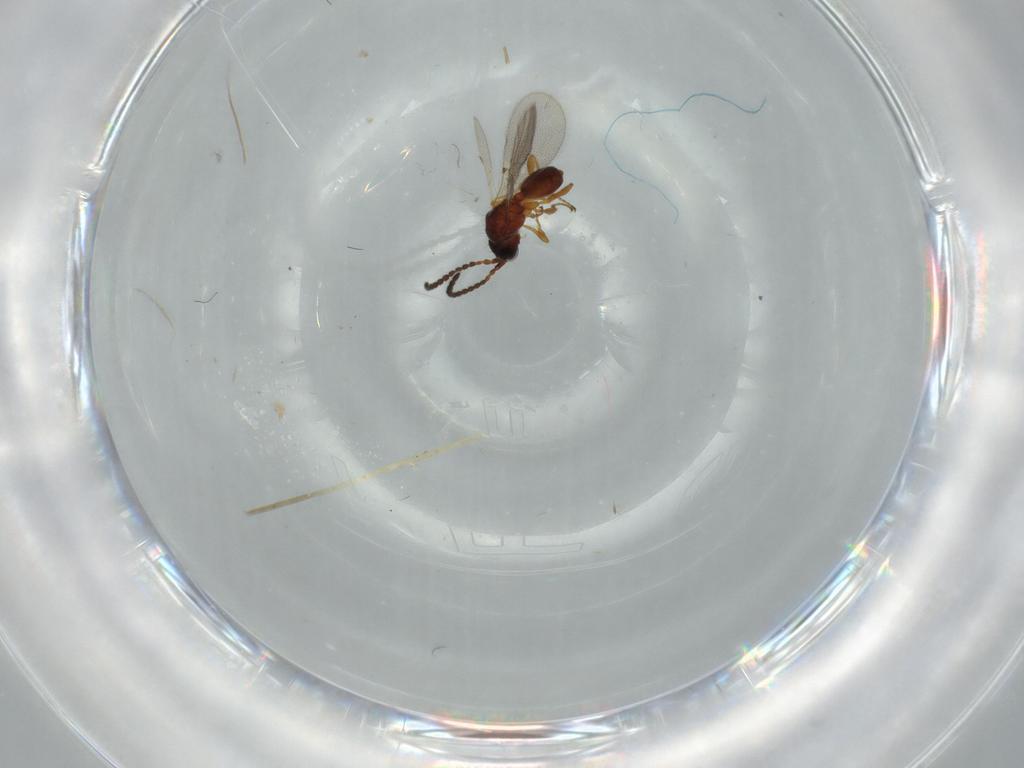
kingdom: Animalia
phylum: Arthropoda
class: Insecta
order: Hymenoptera
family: Diapriidae
